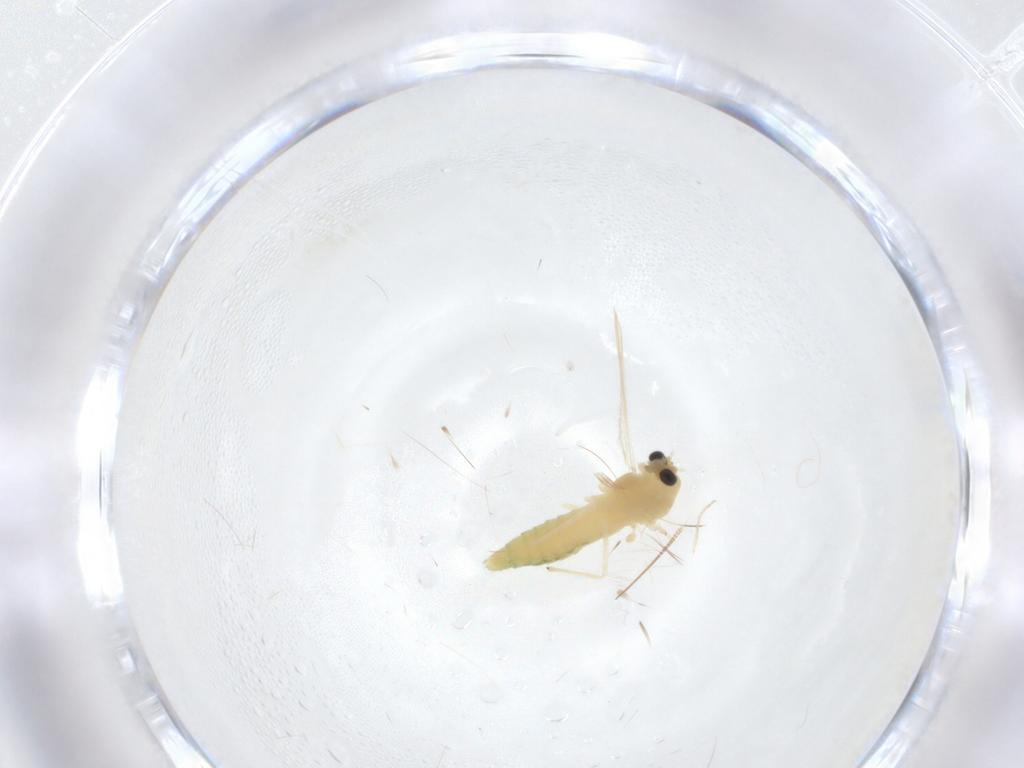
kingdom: Animalia
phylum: Arthropoda
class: Insecta
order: Diptera
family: Chironomidae
